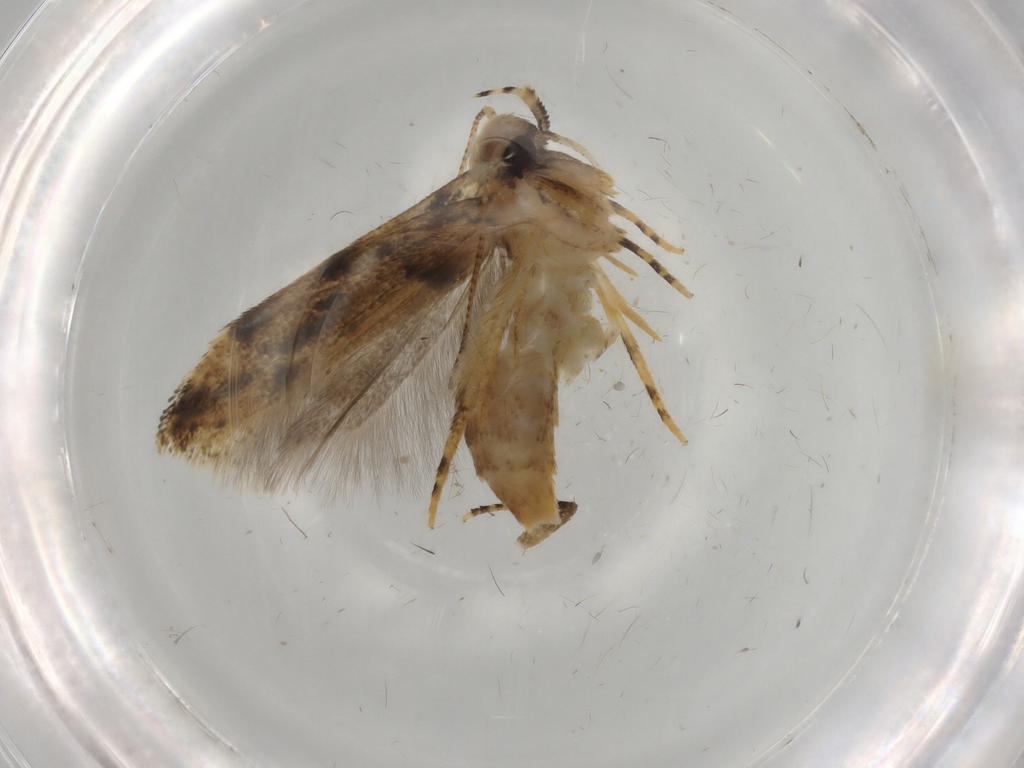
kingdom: Animalia
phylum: Arthropoda
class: Insecta
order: Lepidoptera
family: Gelechiidae
